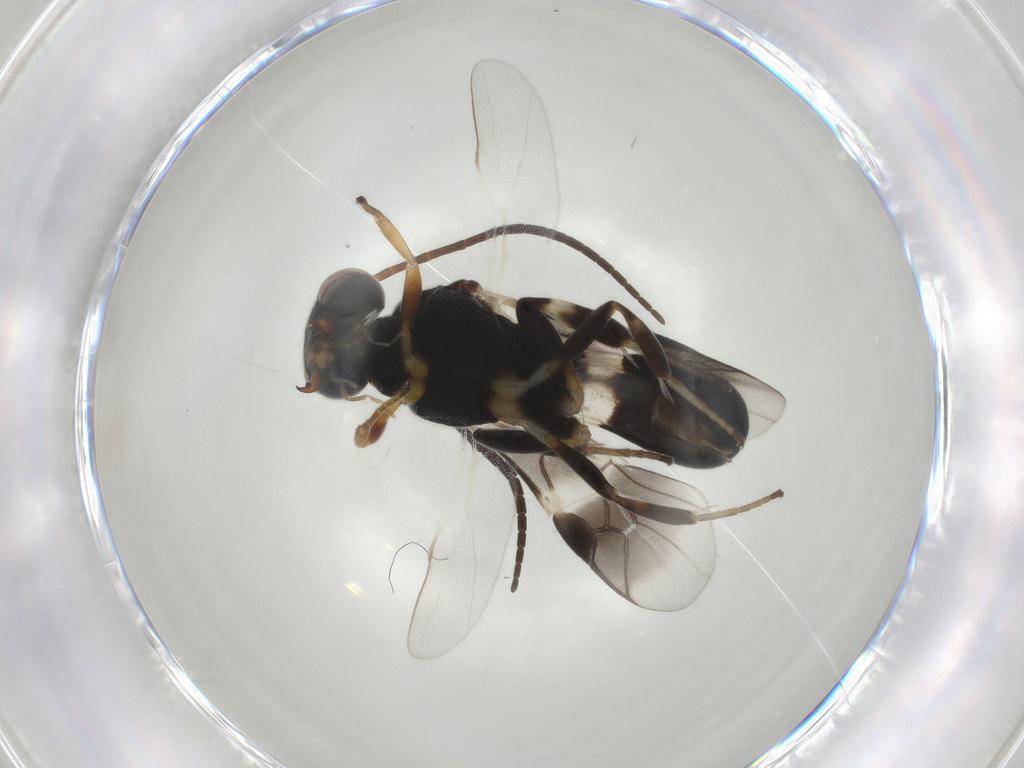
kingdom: Animalia
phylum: Arthropoda
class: Insecta
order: Hymenoptera
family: Braconidae
